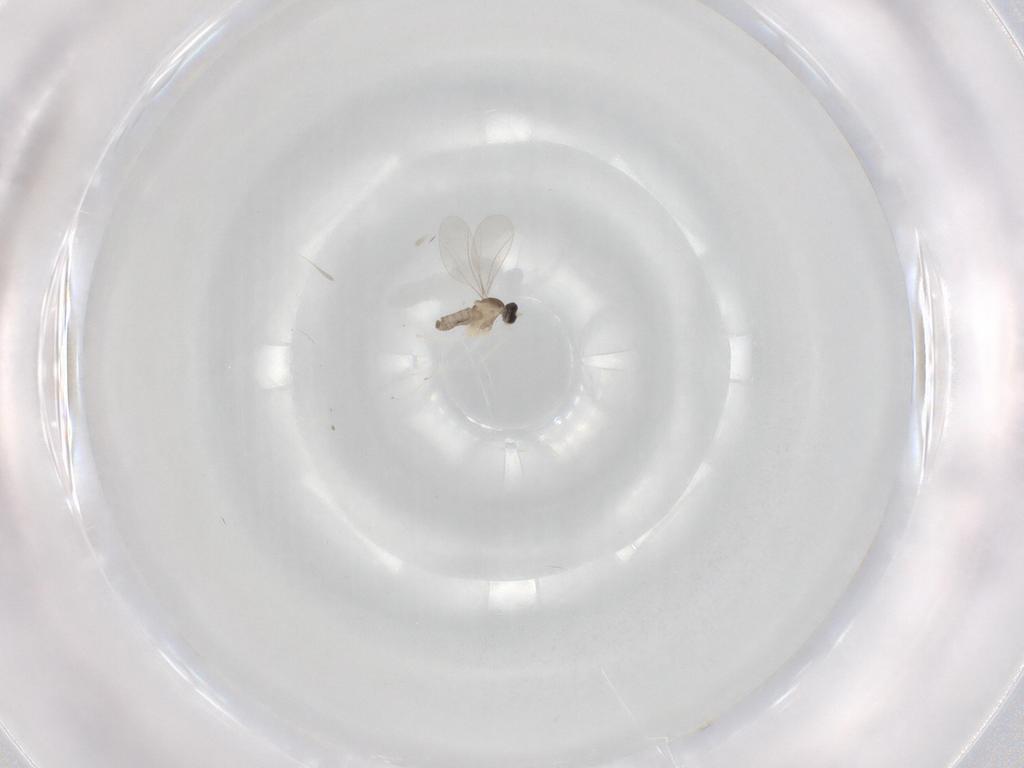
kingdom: Animalia
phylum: Arthropoda
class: Insecta
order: Diptera
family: Cecidomyiidae
